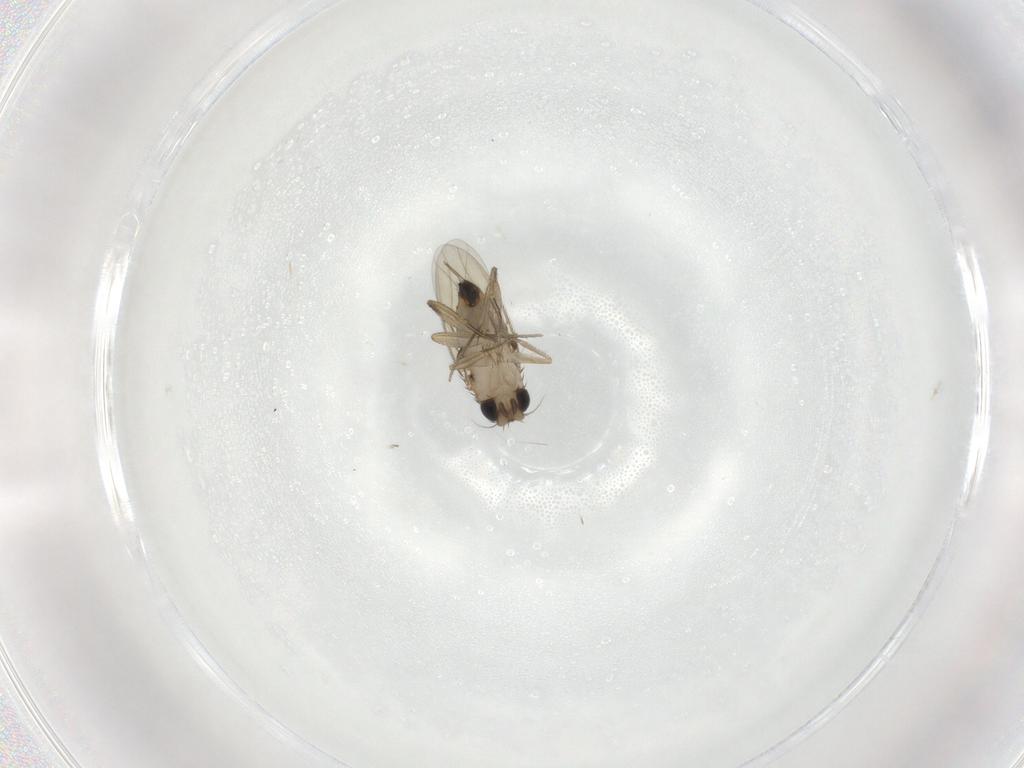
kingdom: Animalia
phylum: Arthropoda
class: Insecta
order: Diptera
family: Phoridae
